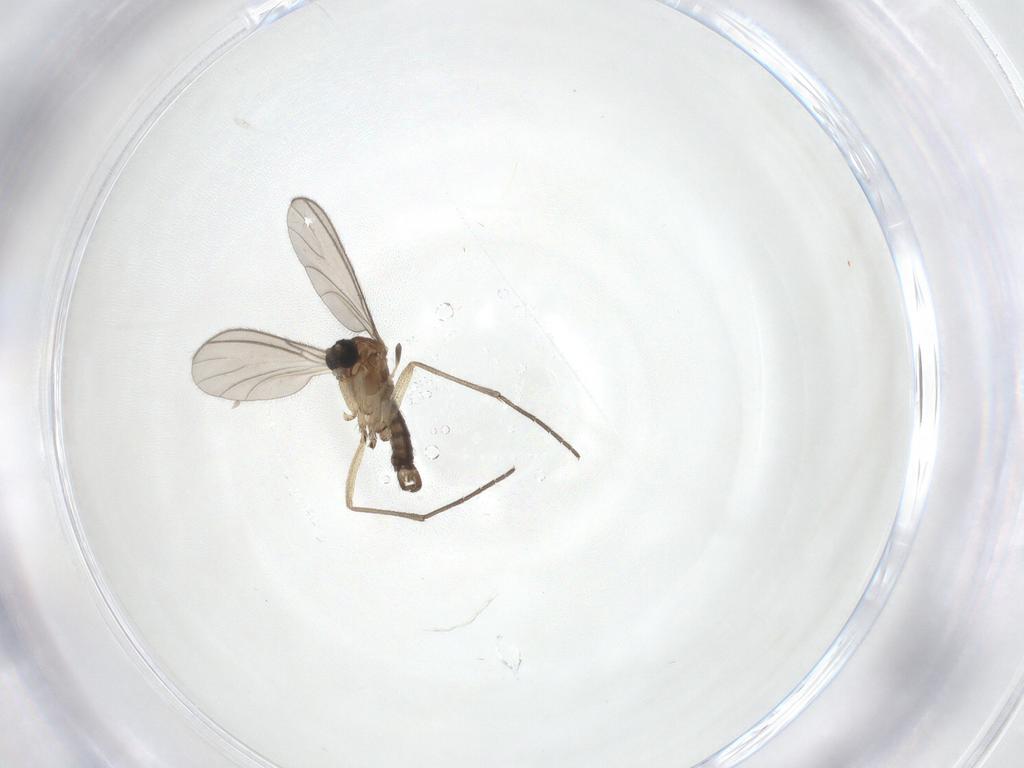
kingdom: Animalia
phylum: Arthropoda
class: Insecta
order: Diptera
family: Sciaridae
